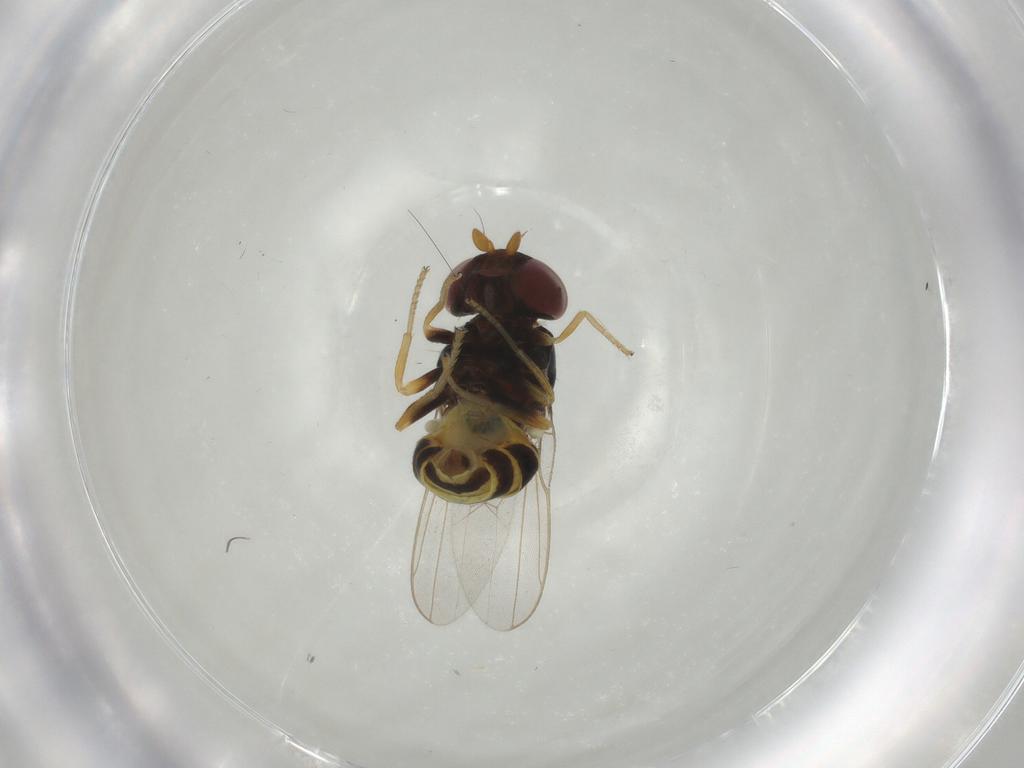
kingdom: Animalia
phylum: Arthropoda
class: Insecta
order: Diptera
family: Chloropidae
